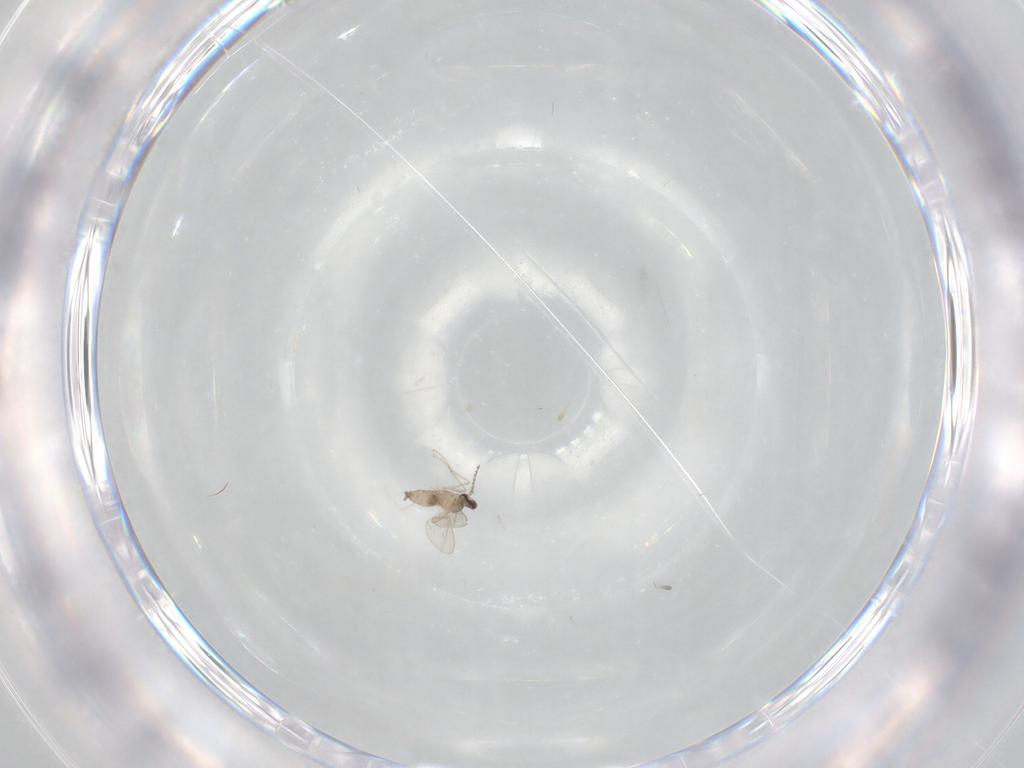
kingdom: Animalia
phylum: Arthropoda
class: Insecta
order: Diptera
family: Cecidomyiidae
